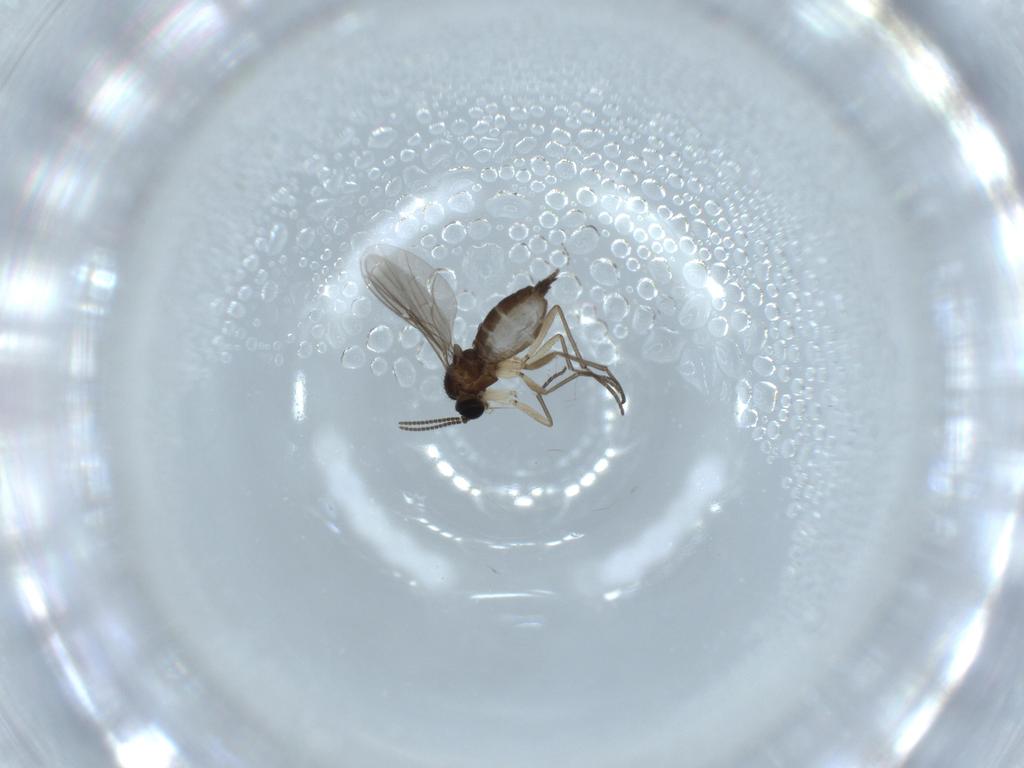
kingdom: Animalia
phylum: Arthropoda
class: Insecta
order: Diptera
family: Sciaridae
